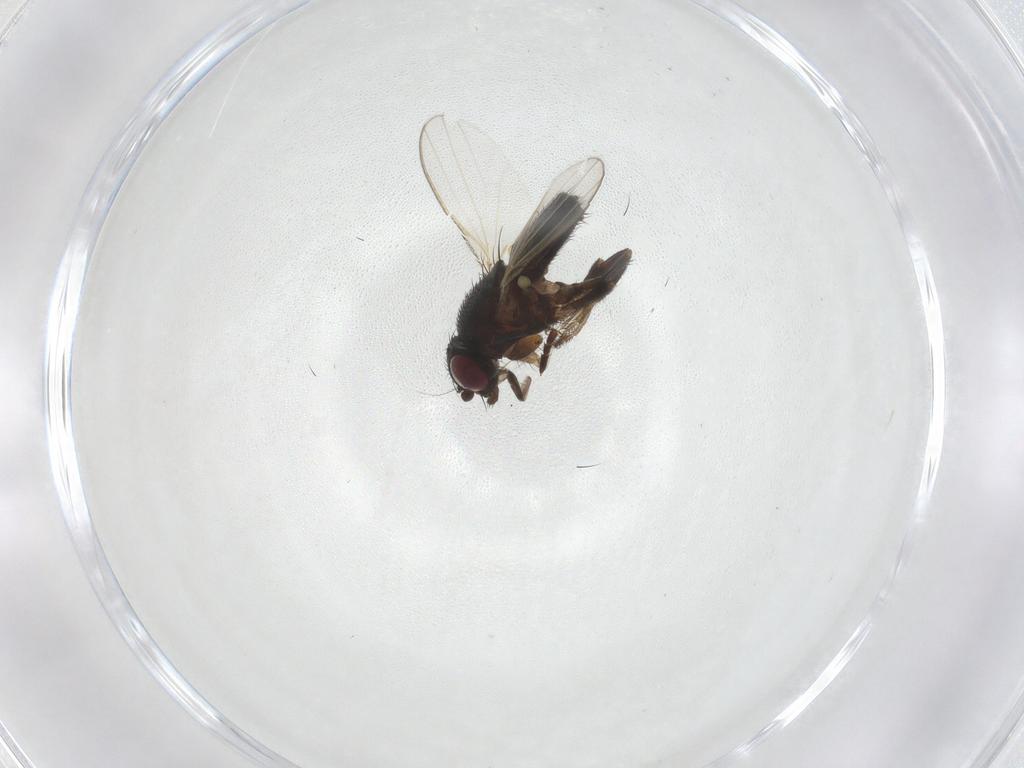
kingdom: Animalia
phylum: Arthropoda
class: Insecta
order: Diptera
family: Milichiidae
